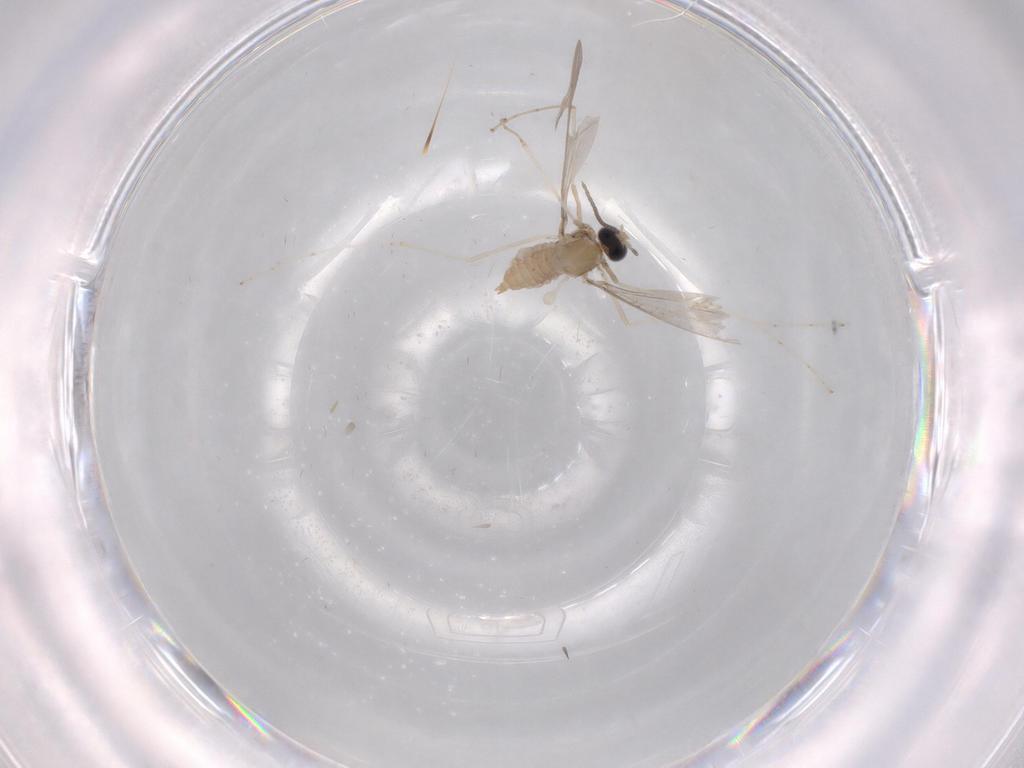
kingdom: Animalia
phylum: Arthropoda
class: Insecta
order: Diptera
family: Cecidomyiidae
